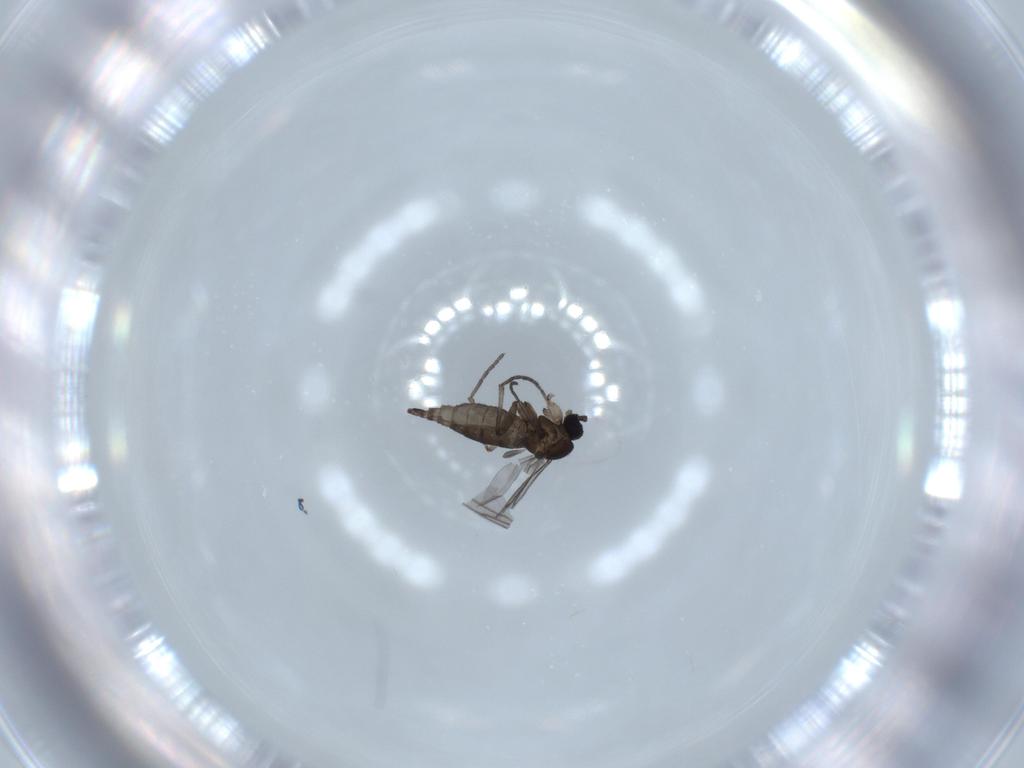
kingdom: Animalia
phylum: Arthropoda
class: Insecta
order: Diptera
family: Sciaridae
